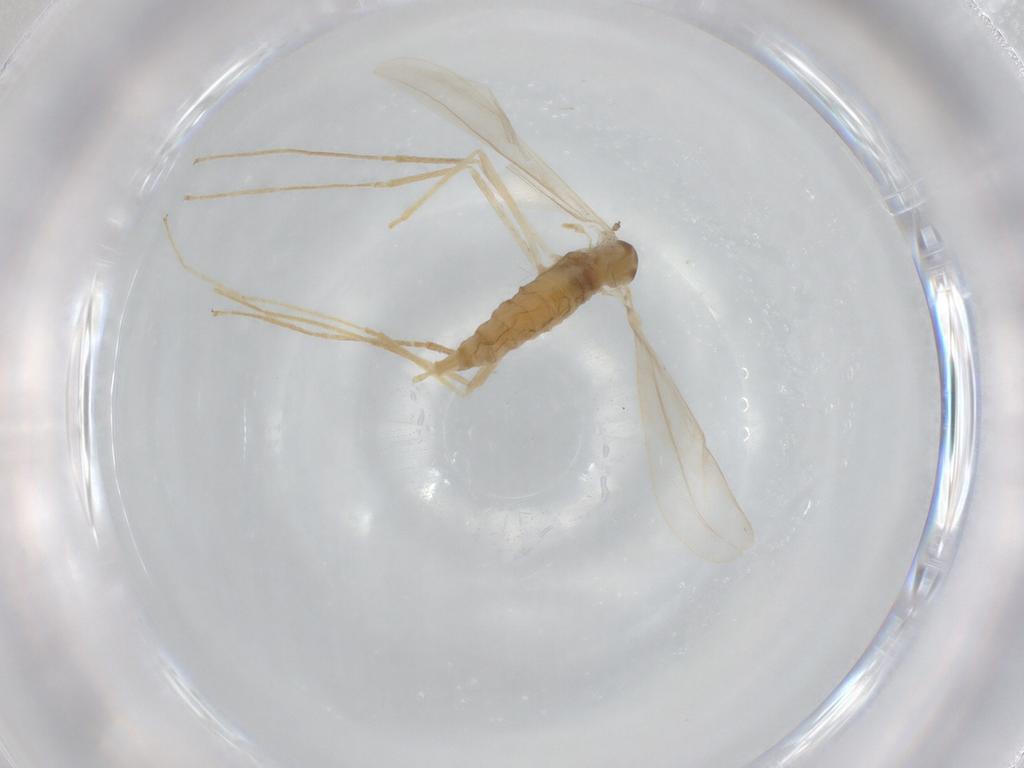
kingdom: Animalia
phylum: Arthropoda
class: Insecta
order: Diptera
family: Cecidomyiidae
